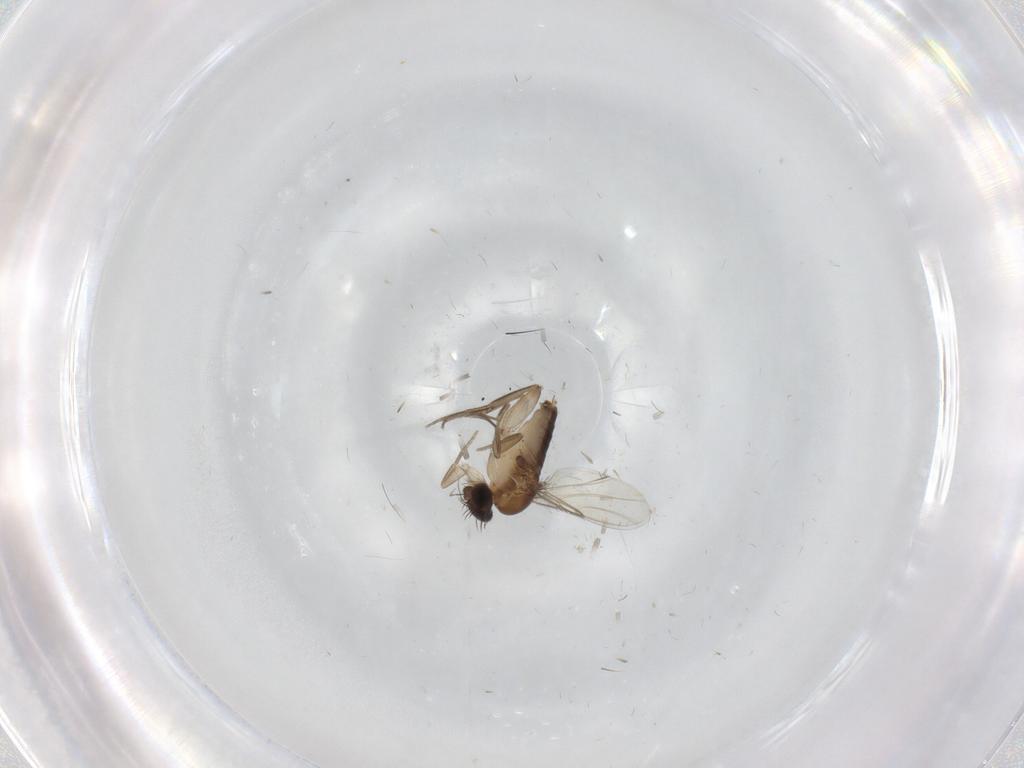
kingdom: Animalia
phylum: Arthropoda
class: Insecta
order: Diptera
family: Phoridae
